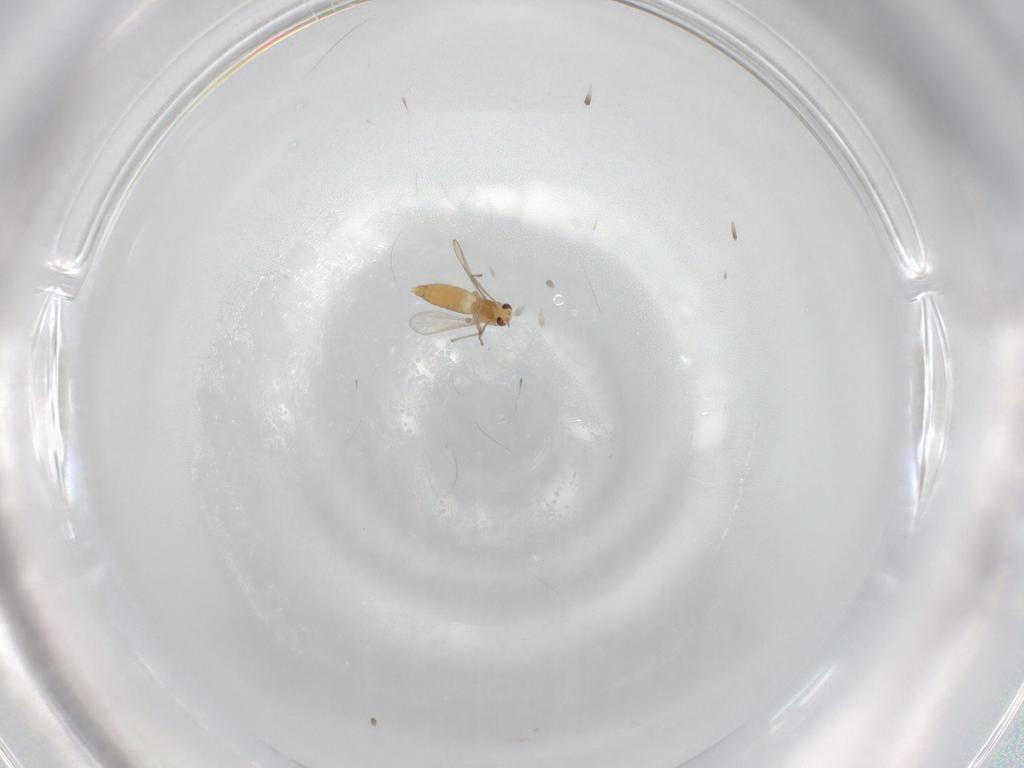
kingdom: Animalia
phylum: Arthropoda
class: Insecta
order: Diptera
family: Chironomidae
